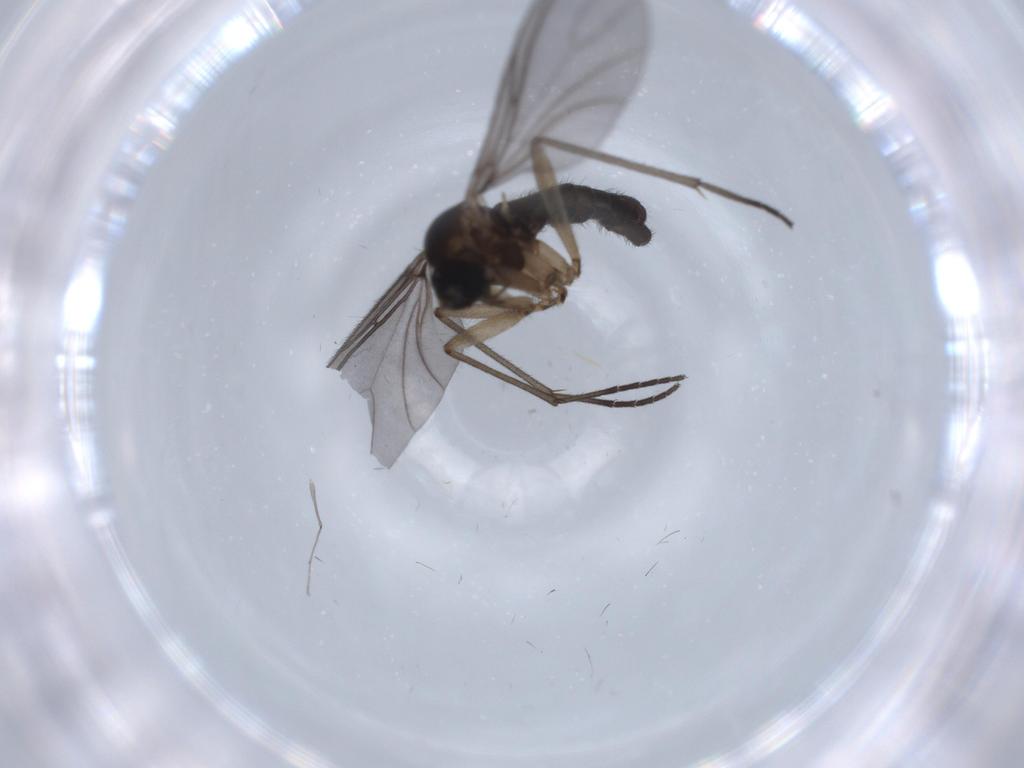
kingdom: Animalia
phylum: Arthropoda
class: Insecta
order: Diptera
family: Sciaridae
